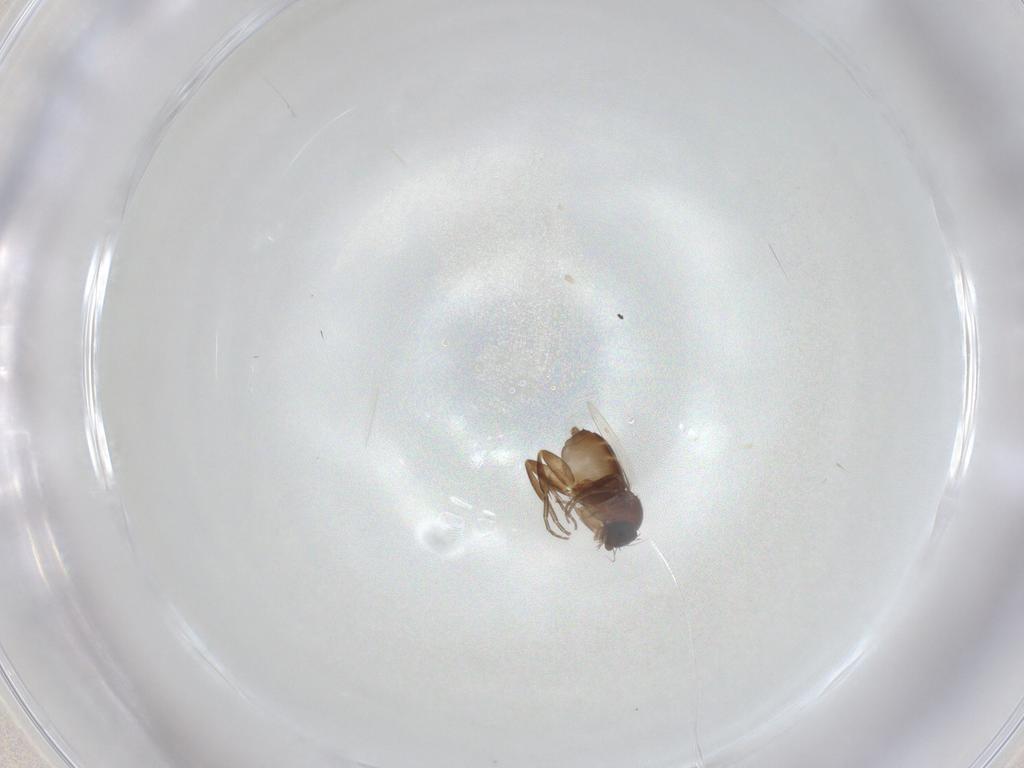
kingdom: Animalia
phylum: Arthropoda
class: Insecta
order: Diptera
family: Phoridae
